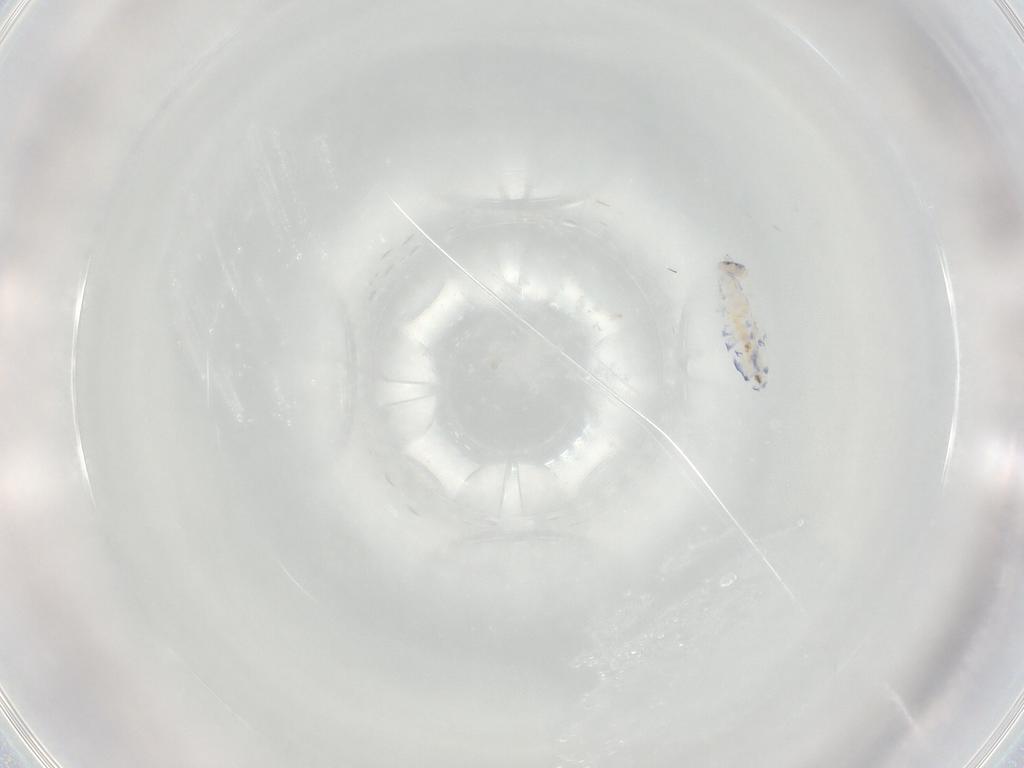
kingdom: Animalia
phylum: Arthropoda
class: Collembola
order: Entomobryomorpha
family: Entomobryidae
